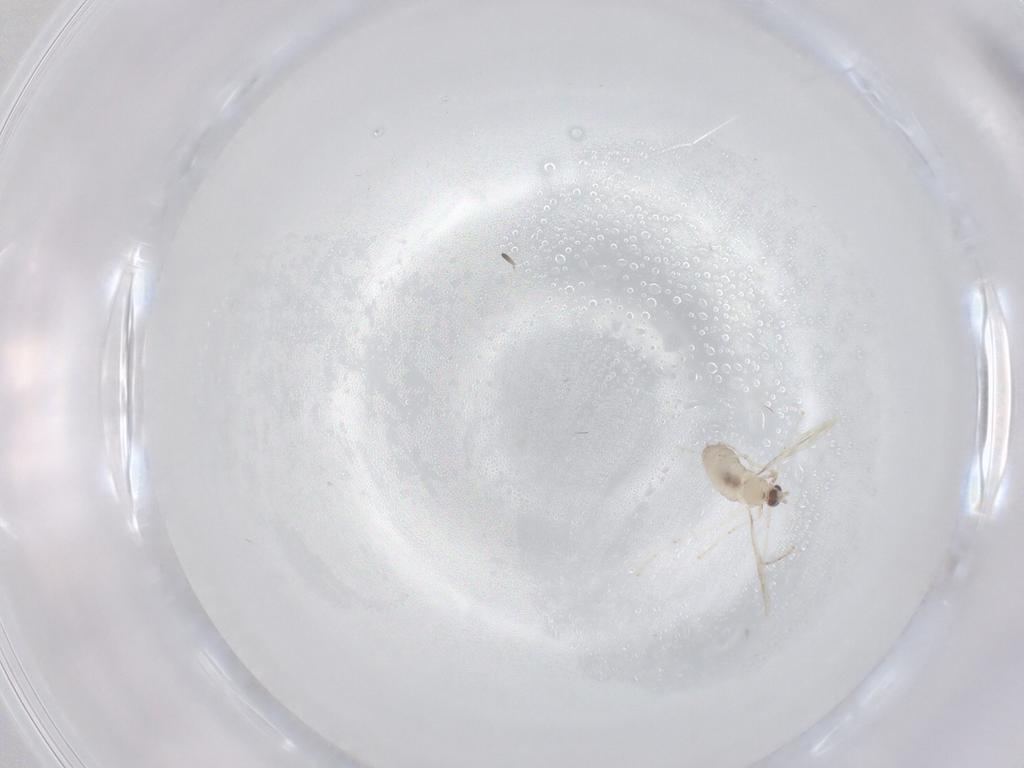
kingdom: Animalia
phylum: Arthropoda
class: Insecta
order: Diptera
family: Cecidomyiidae
